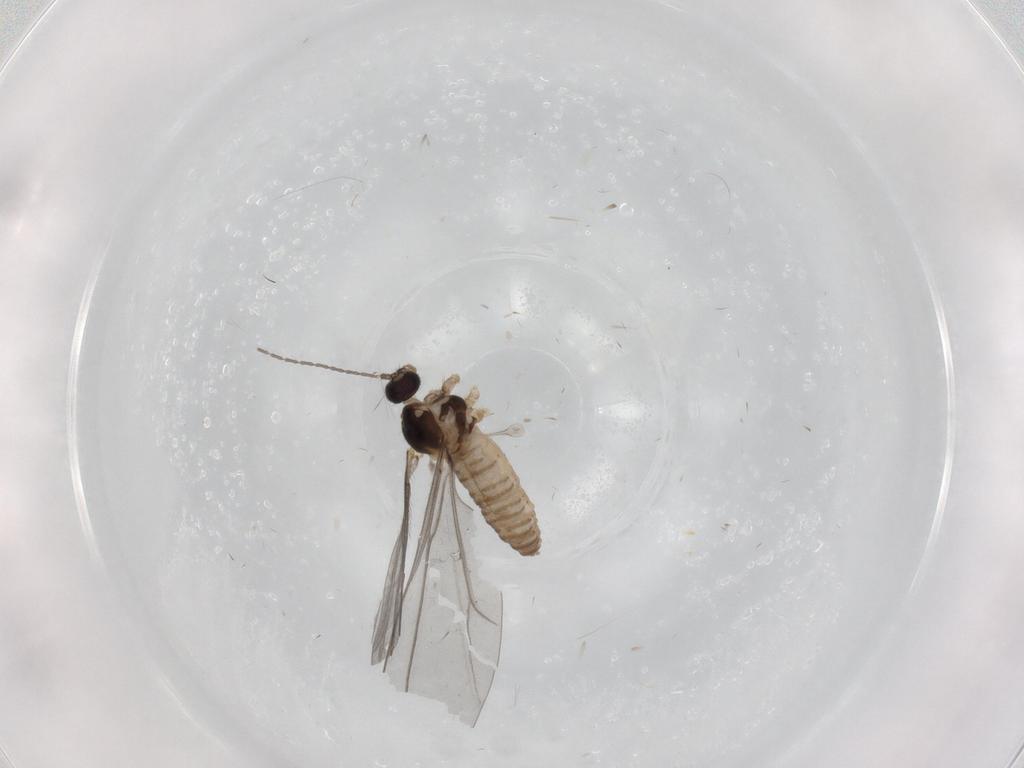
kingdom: Animalia
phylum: Arthropoda
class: Insecta
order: Diptera
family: Cecidomyiidae
